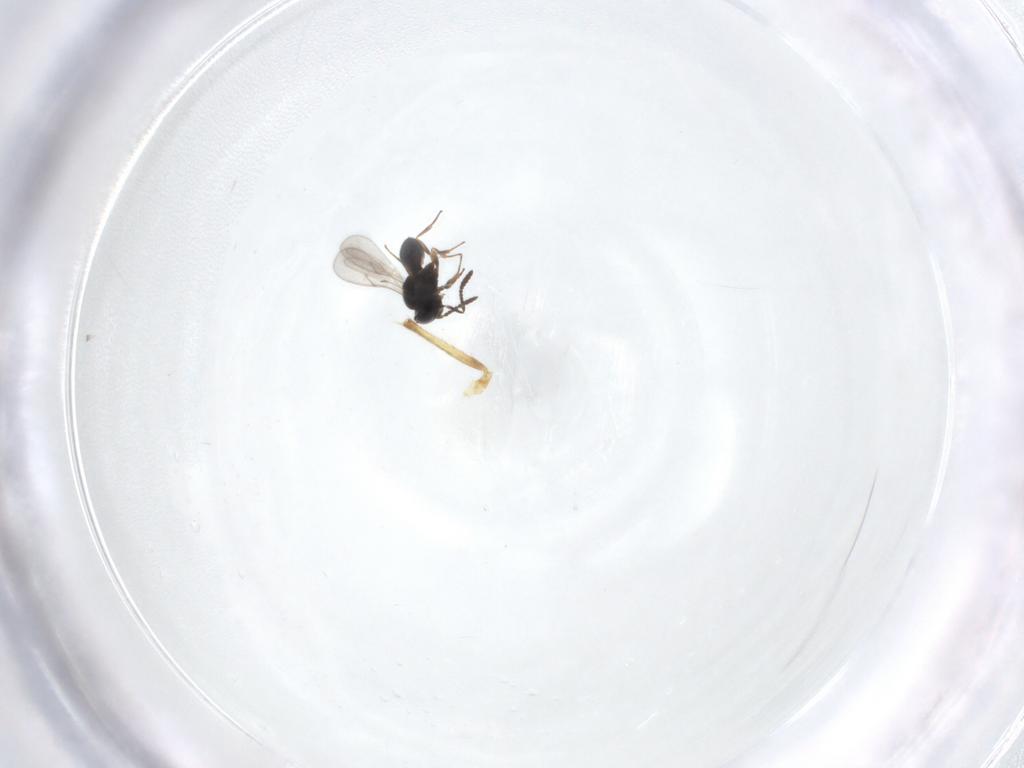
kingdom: Animalia
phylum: Arthropoda
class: Insecta
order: Hymenoptera
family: Scelionidae
